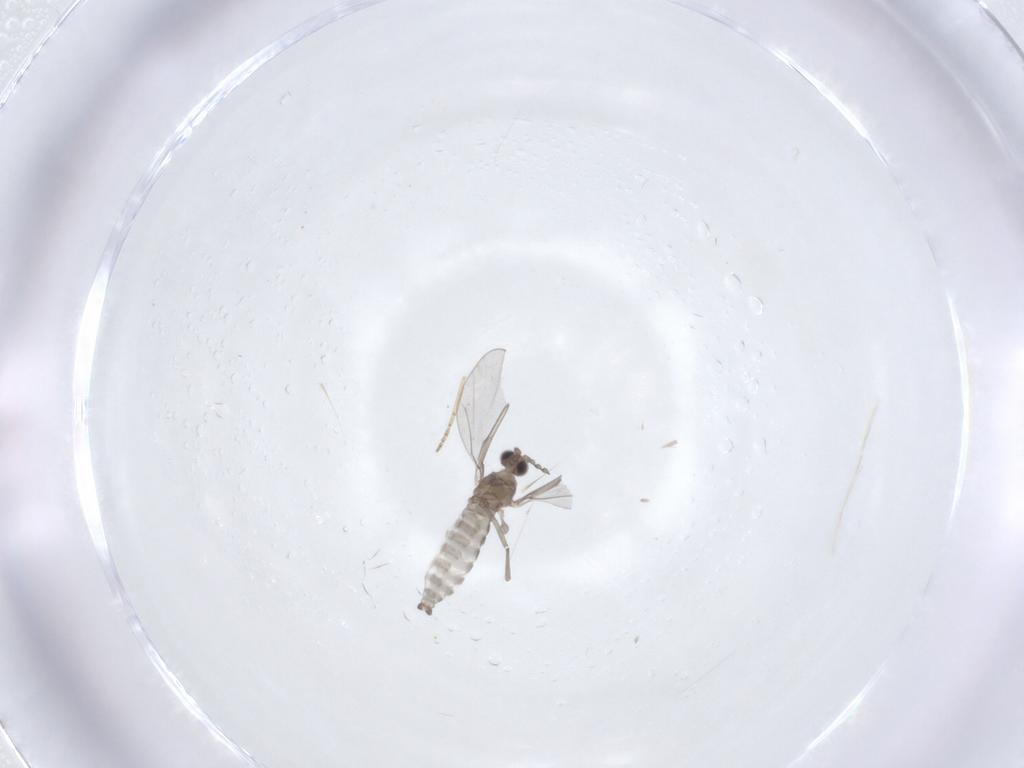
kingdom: Animalia
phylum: Arthropoda
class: Insecta
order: Diptera
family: Ceratopogonidae
